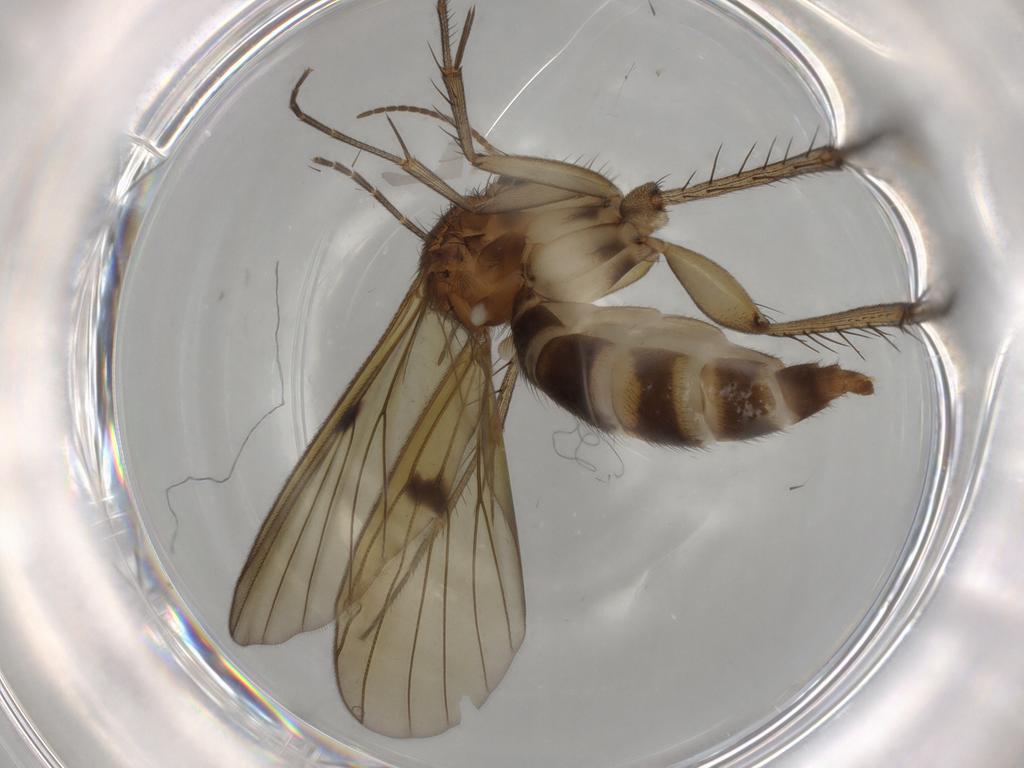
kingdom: Animalia
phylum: Arthropoda
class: Insecta
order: Diptera
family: Mycetophilidae
